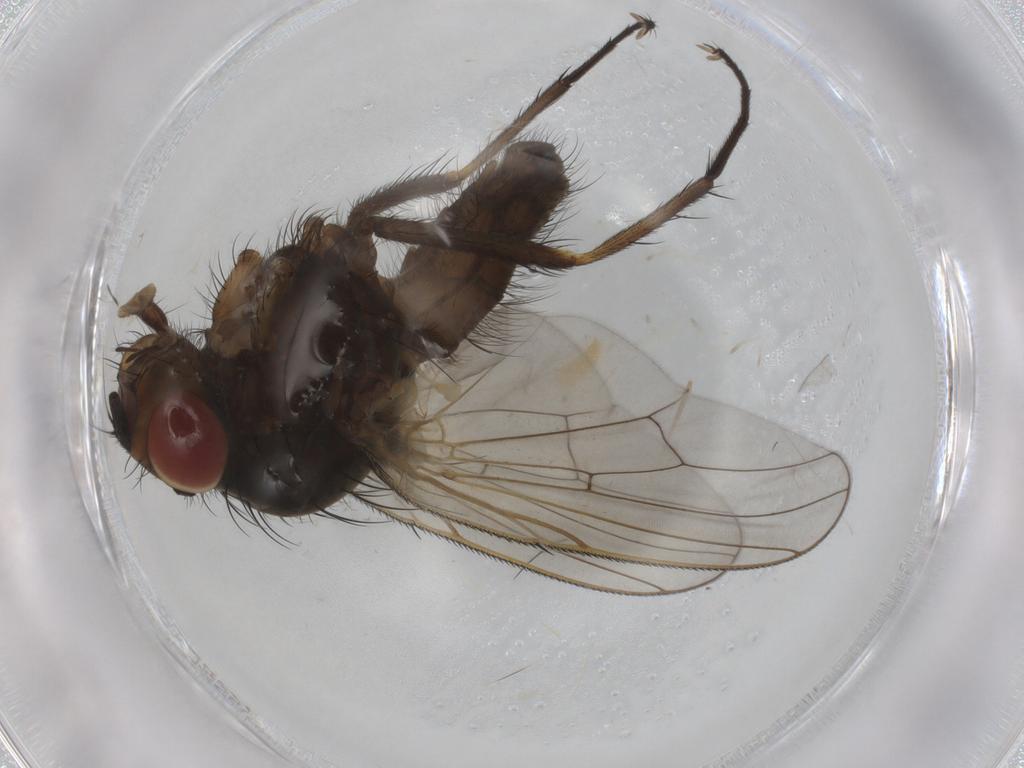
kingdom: Animalia
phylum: Arthropoda
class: Insecta
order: Diptera
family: Anthomyiidae
